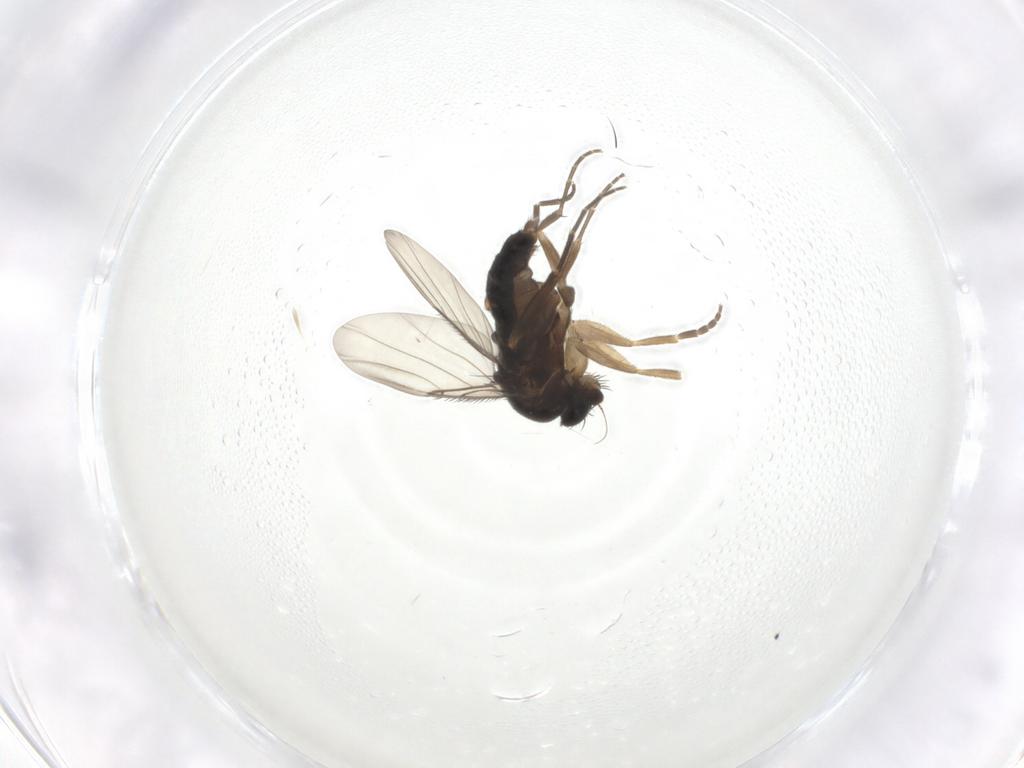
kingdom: Animalia
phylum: Arthropoda
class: Insecta
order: Diptera
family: Phoridae
